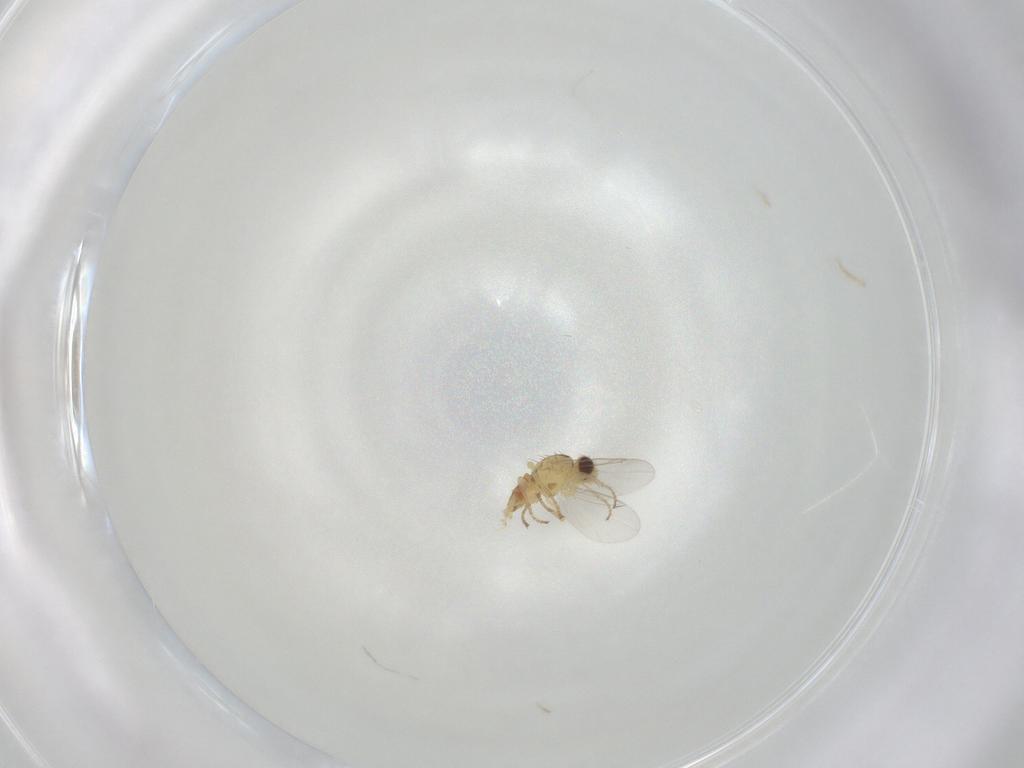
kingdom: Animalia
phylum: Arthropoda
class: Insecta
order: Diptera
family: Agromyzidae
